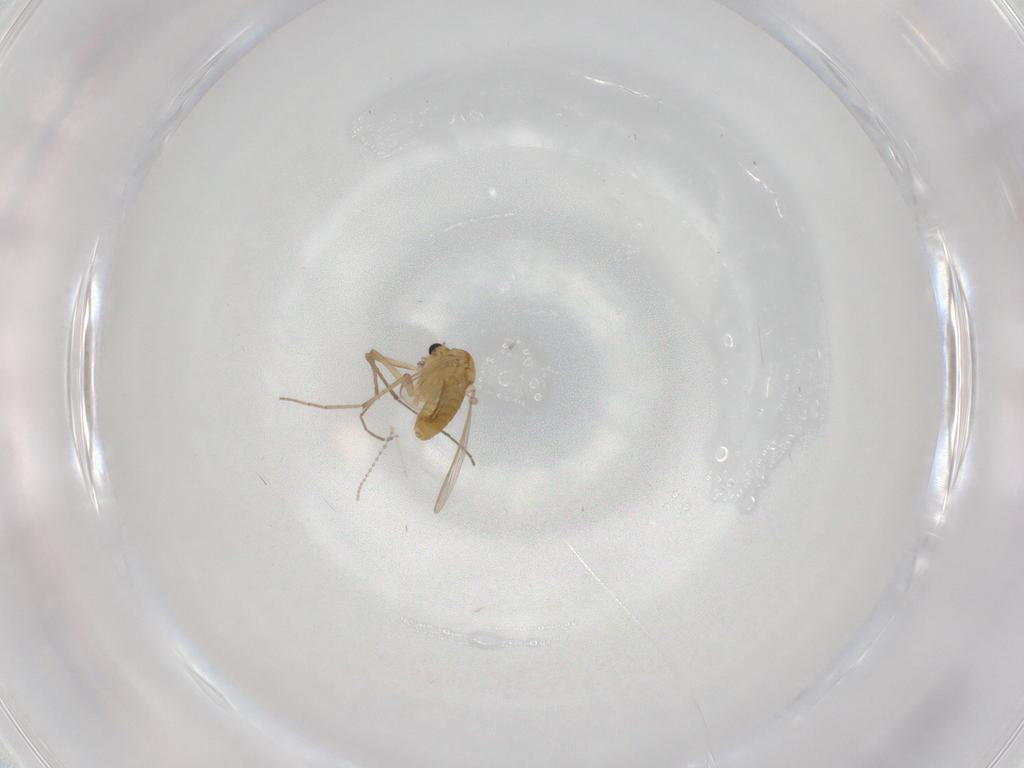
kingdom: Animalia
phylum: Arthropoda
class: Insecta
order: Diptera
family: Chironomidae
